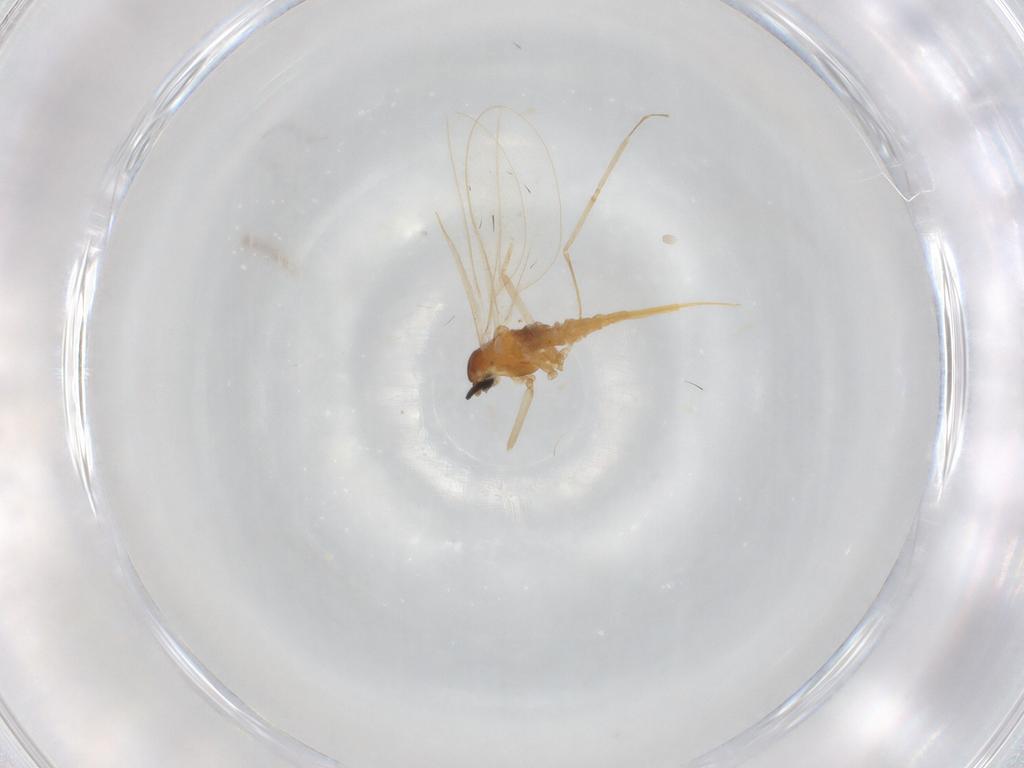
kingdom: Animalia
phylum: Arthropoda
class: Insecta
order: Diptera
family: Cecidomyiidae
